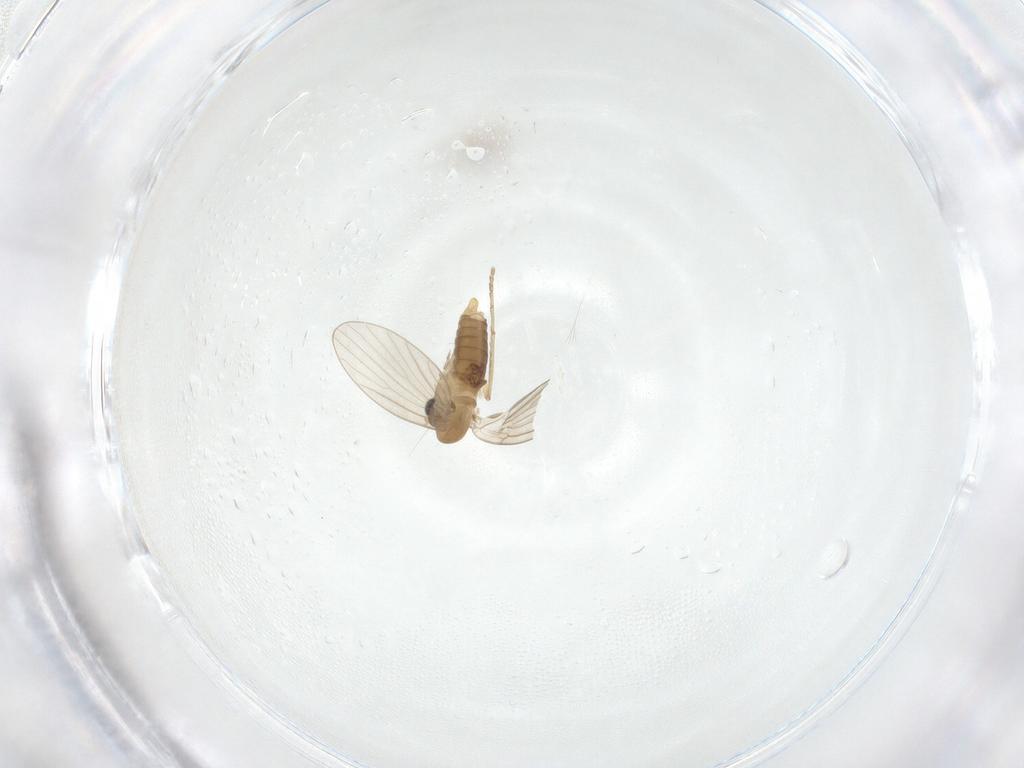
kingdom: Animalia
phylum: Arthropoda
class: Insecta
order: Diptera
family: Psychodidae
